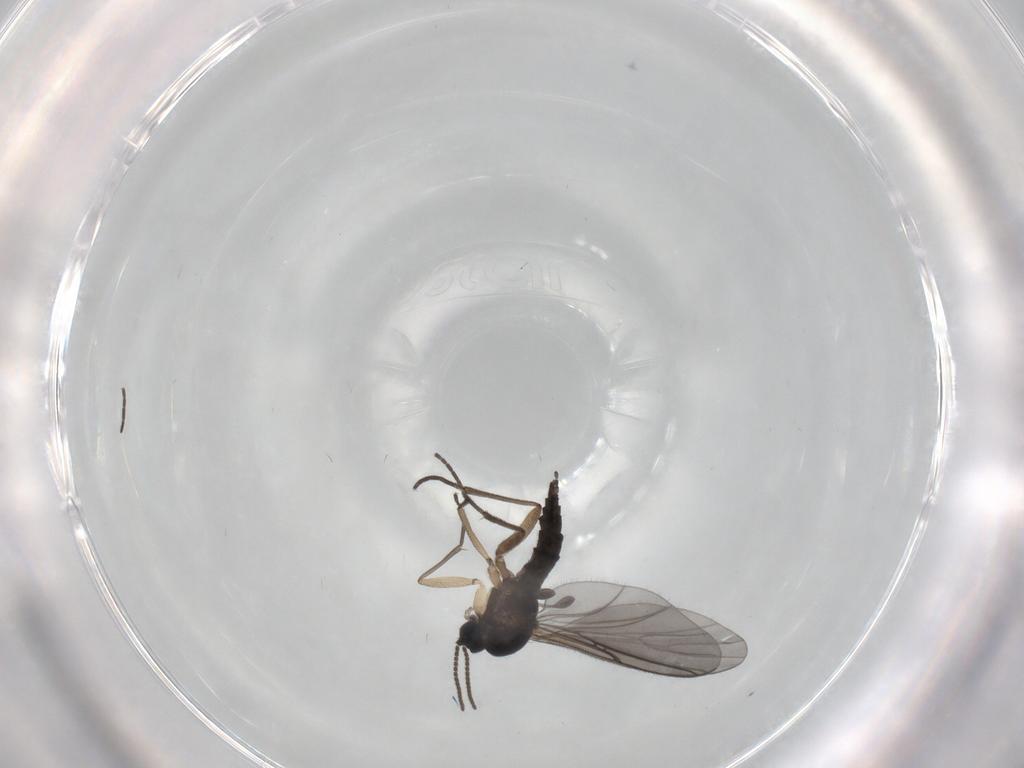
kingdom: Animalia
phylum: Arthropoda
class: Insecta
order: Diptera
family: Sciaridae
